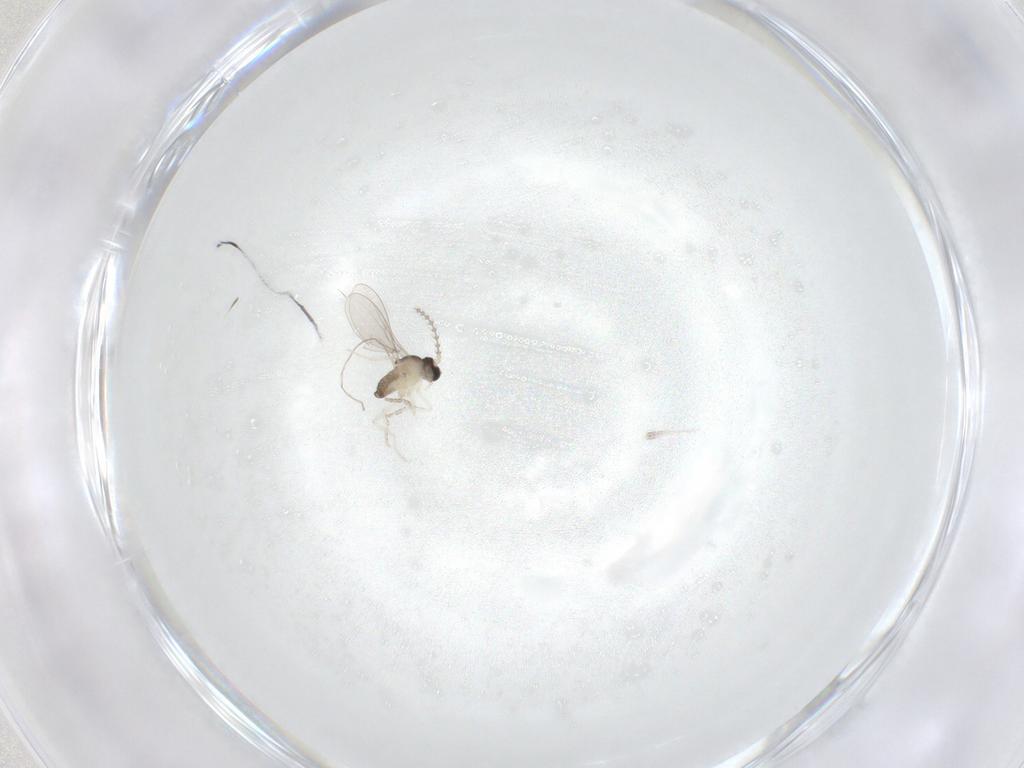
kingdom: Animalia
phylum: Arthropoda
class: Insecta
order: Diptera
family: Cecidomyiidae
